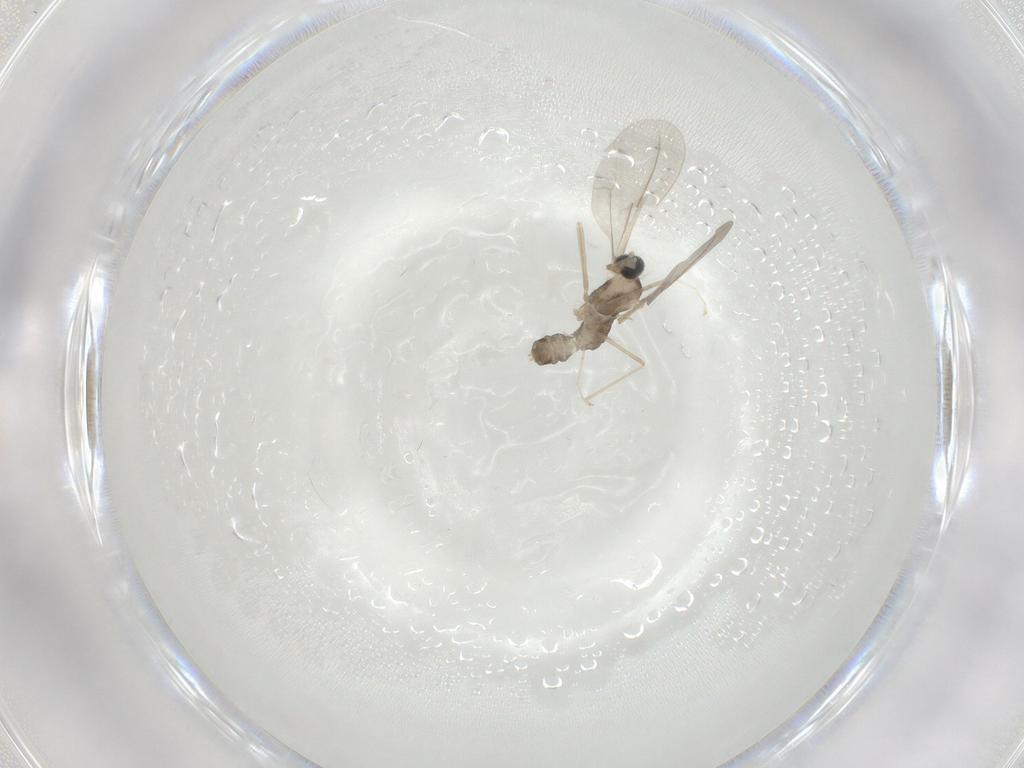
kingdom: Animalia
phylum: Arthropoda
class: Insecta
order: Diptera
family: Cecidomyiidae
